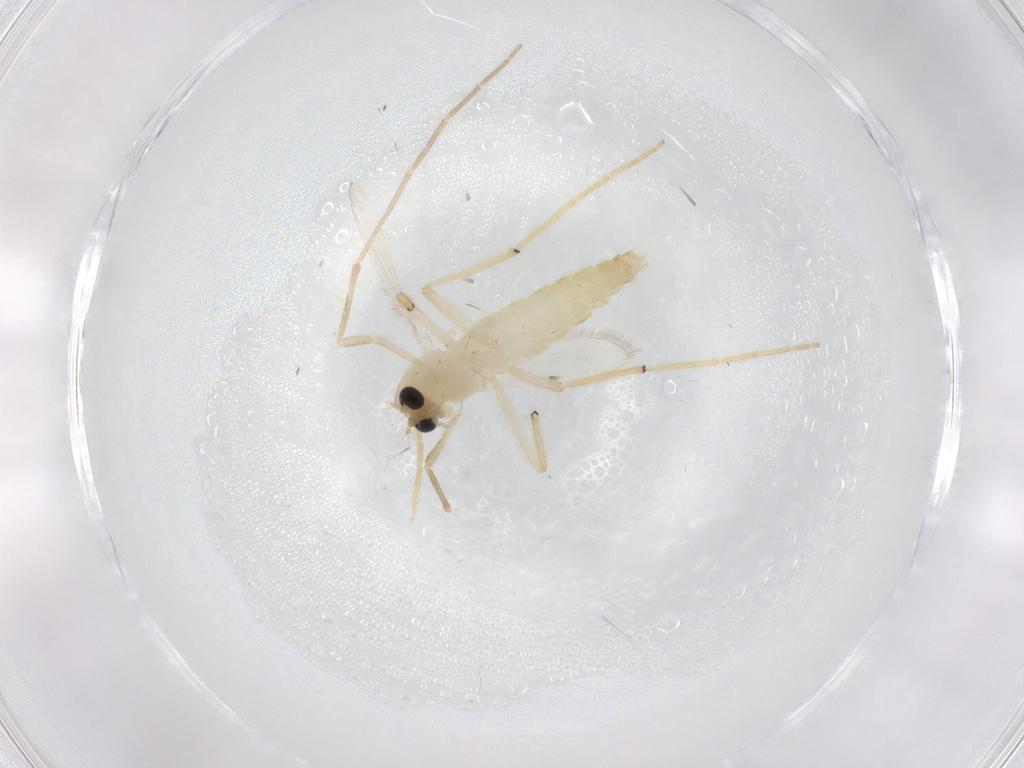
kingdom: Animalia
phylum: Arthropoda
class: Insecta
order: Diptera
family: Chironomidae
